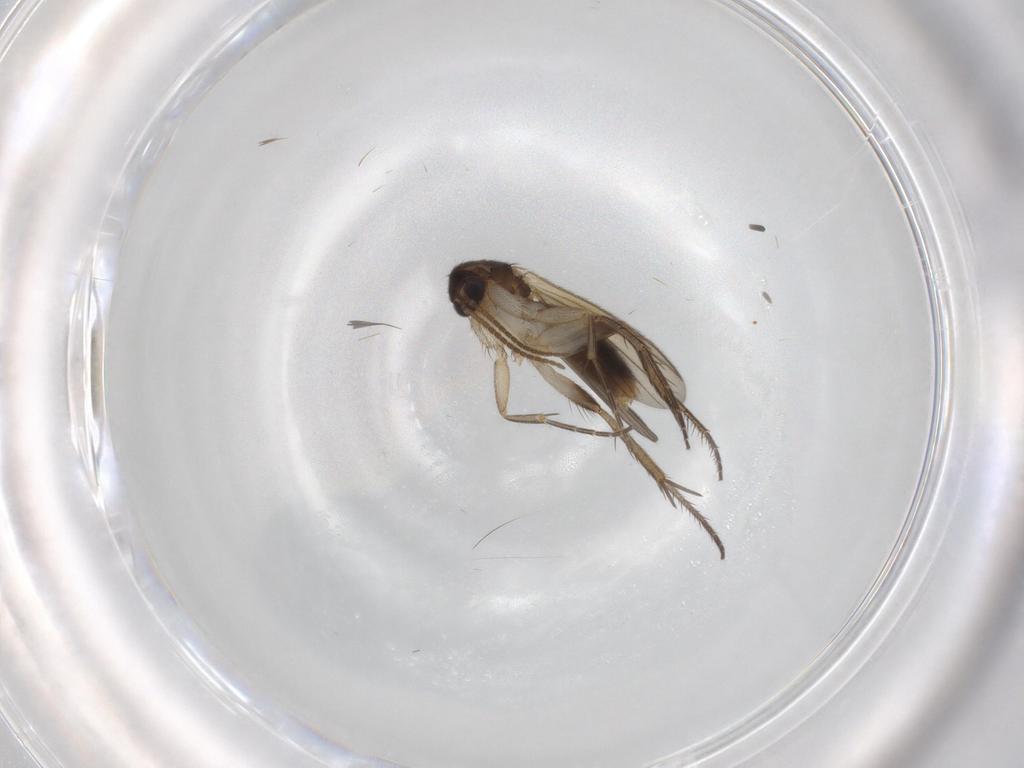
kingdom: Animalia
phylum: Arthropoda
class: Insecta
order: Diptera
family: Mycetophilidae
